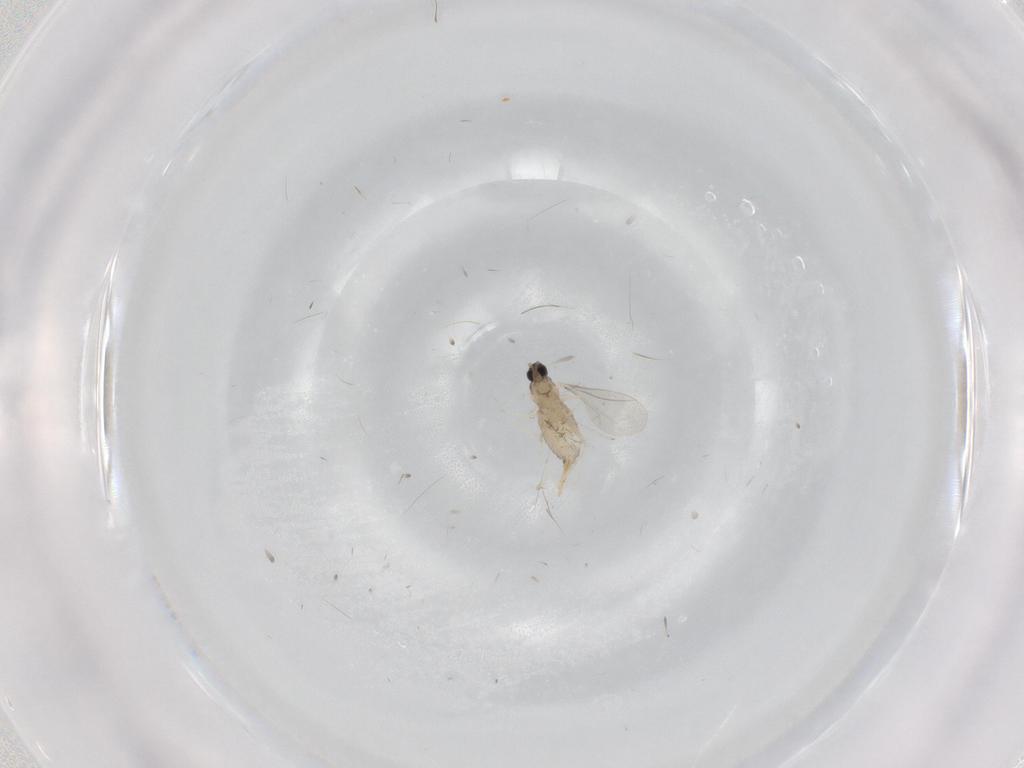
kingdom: Animalia
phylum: Arthropoda
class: Insecta
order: Diptera
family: Cecidomyiidae
